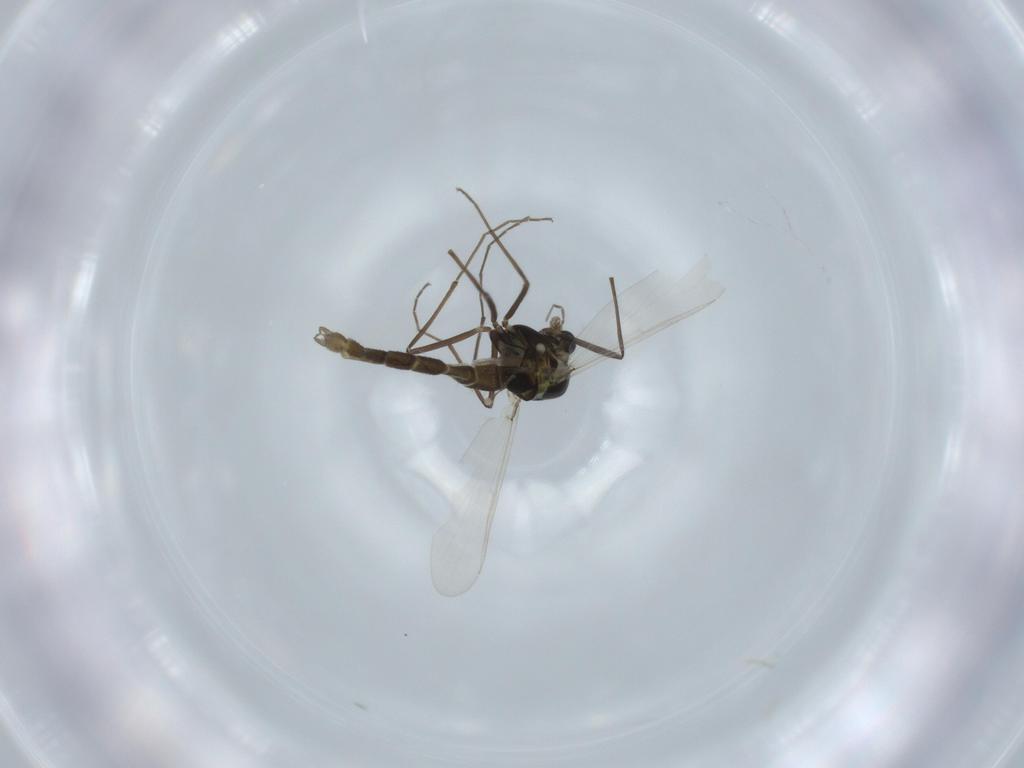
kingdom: Animalia
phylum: Arthropoda
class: Insecta
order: Diptera
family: Chironomidae
